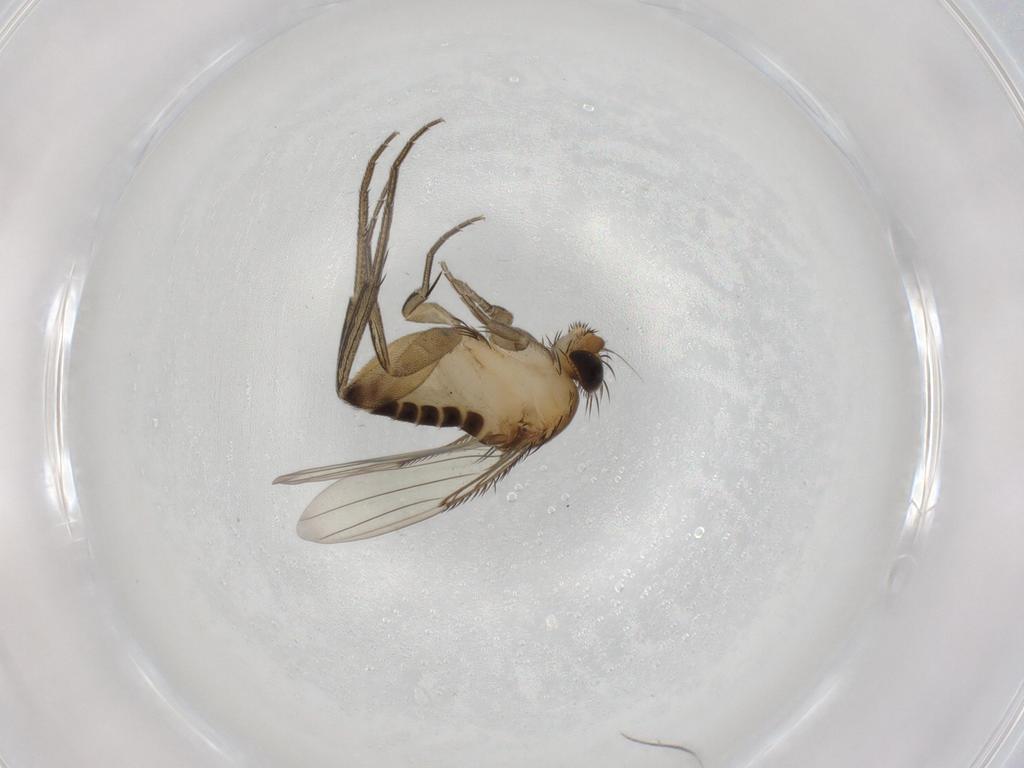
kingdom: Animalia
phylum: Arthropoda
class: Insecta
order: Diptera
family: Phoridae
